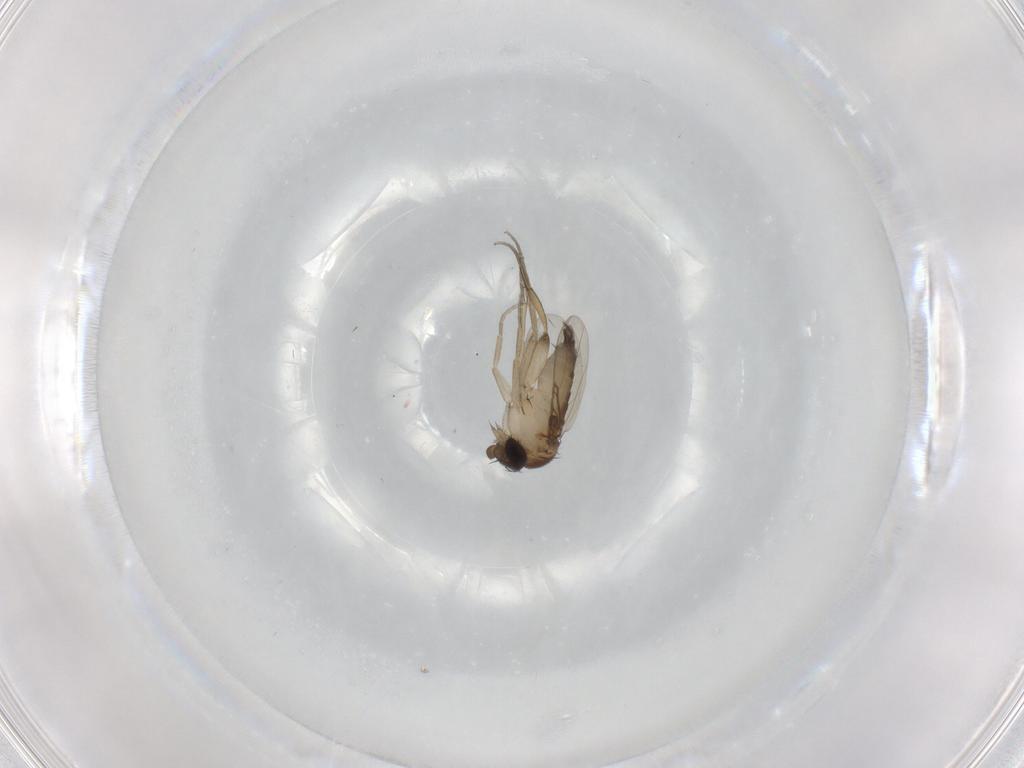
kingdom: Animalia
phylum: Arthropoda
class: Insecta
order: Diptera
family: Phoridae
